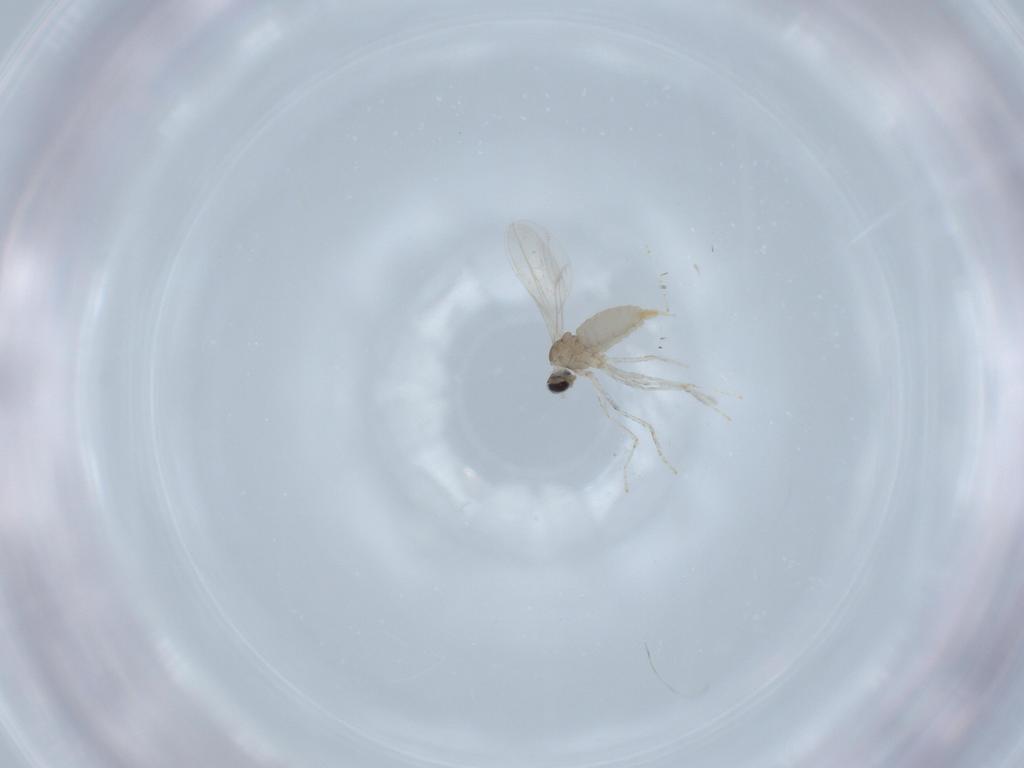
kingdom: Animalia
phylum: Arthropoda
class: Insecta
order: Diptera
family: Cecidomyiidae
